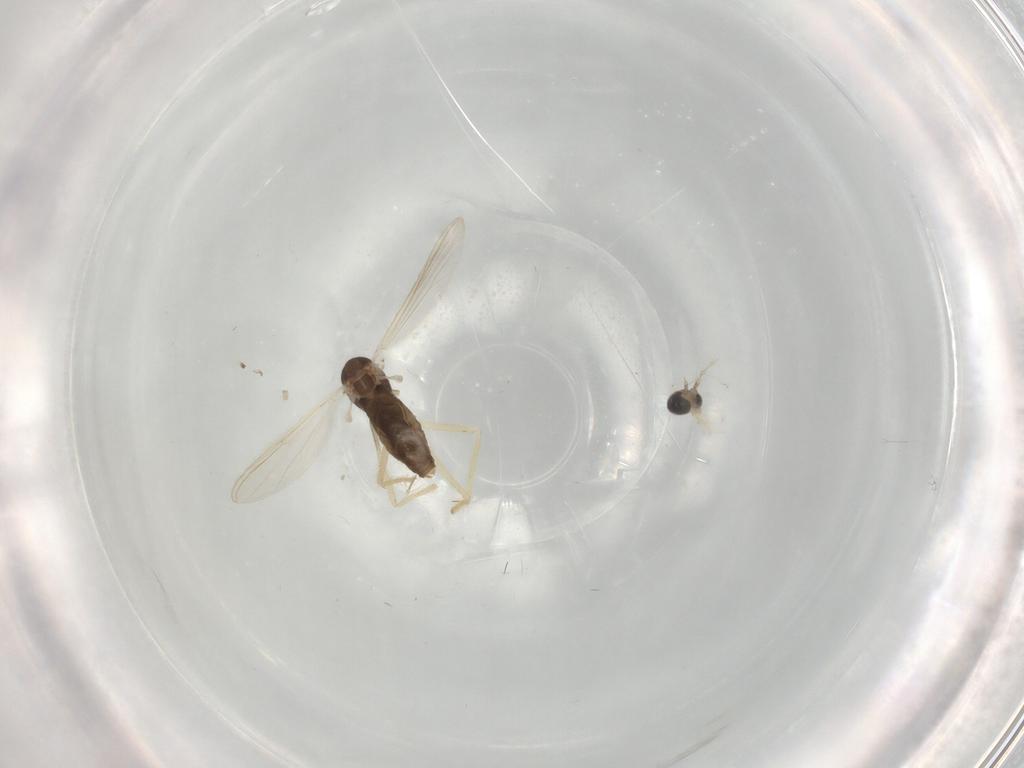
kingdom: Animalia
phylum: Arthropoda
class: Insecta
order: Diptera
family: Chironomidae
